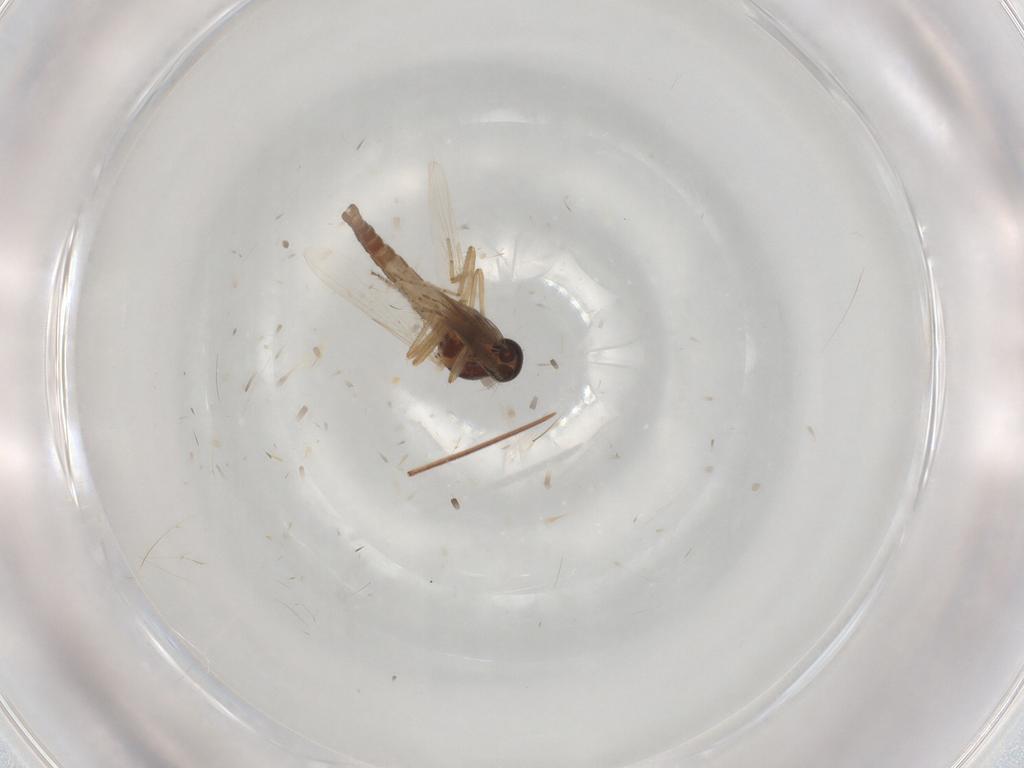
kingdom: Animalia
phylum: Arthropoda
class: Insecta
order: Diptera
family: Ceratopogonidae
